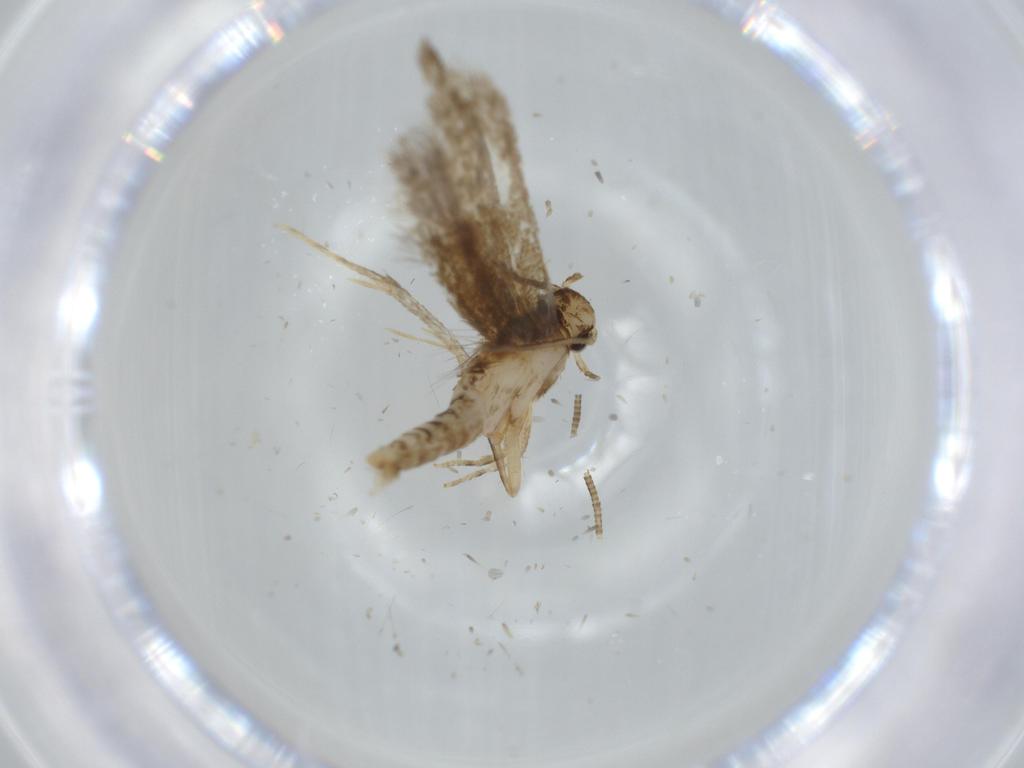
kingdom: Animalia
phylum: Arthropoda
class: Insecta
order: Lepidoptera
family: Tineidae
